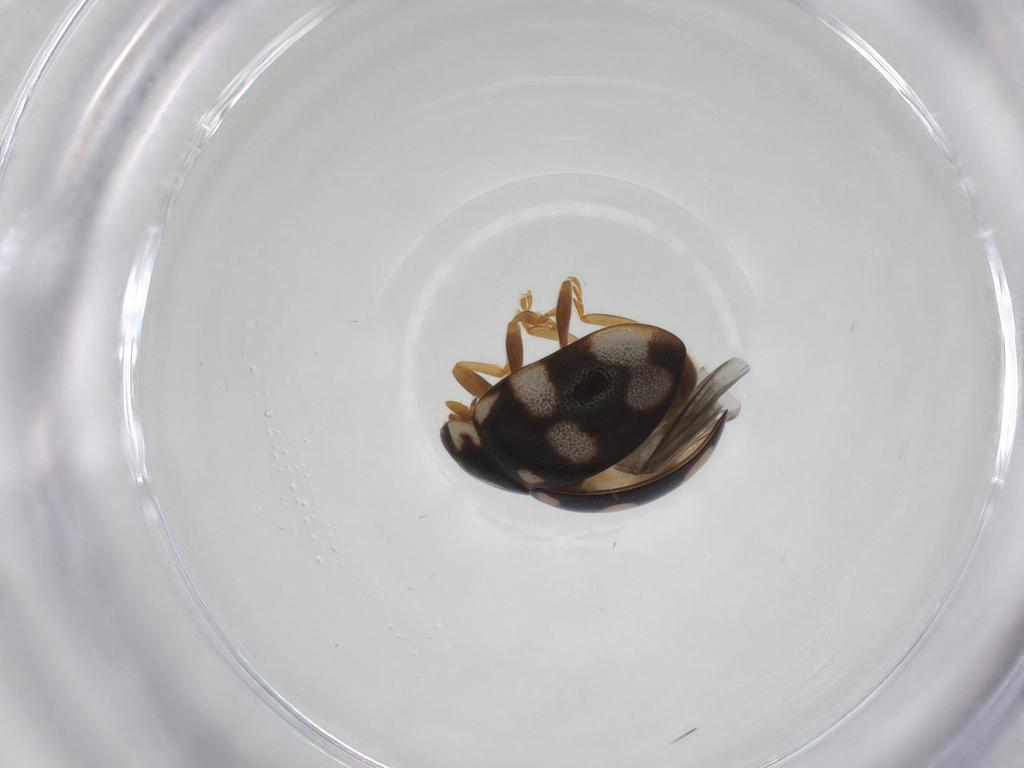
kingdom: Animalia
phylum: Arthropoda
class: Insecta
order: Coleoptera
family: Coccinellidae
